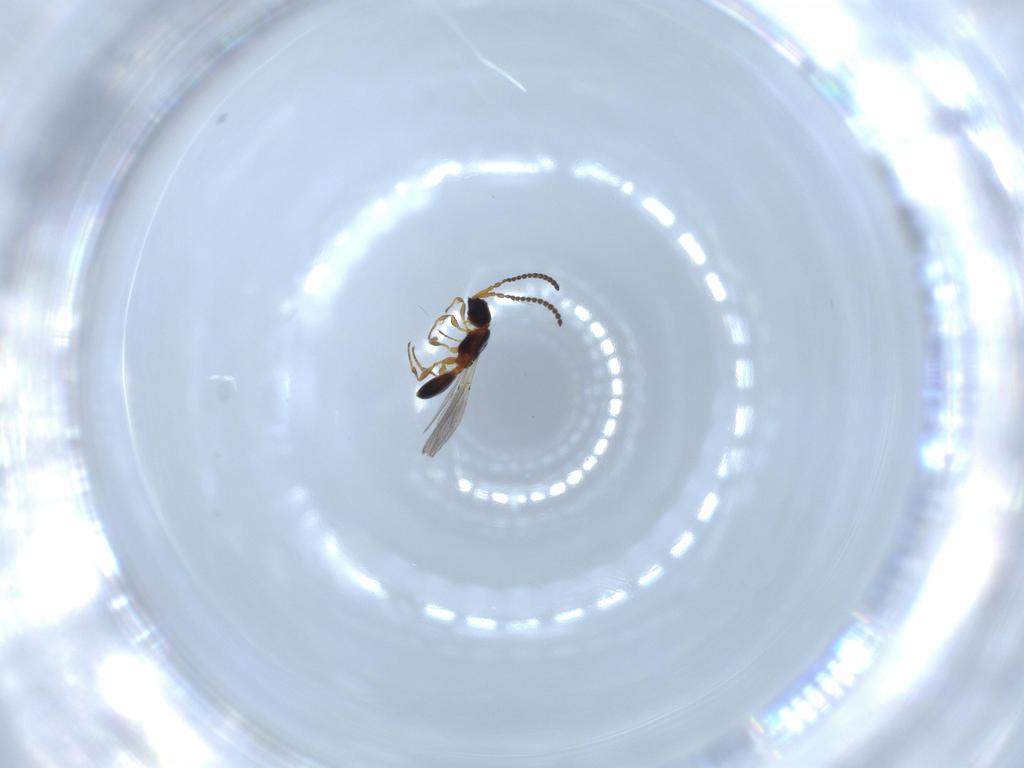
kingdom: Animalia
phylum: Arthropoda
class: Insecta
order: Hymenoptera
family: Diapriidae
